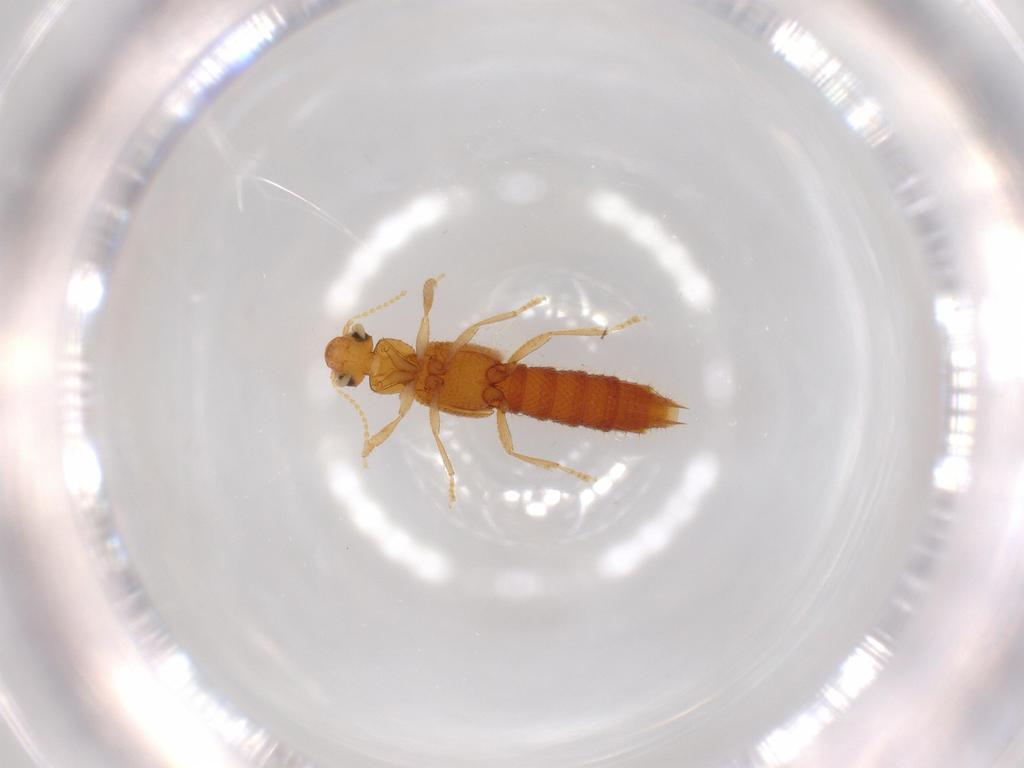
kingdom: Animalia
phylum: Arthropoda
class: Insecta
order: Coleoptera
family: Staphylinidae
